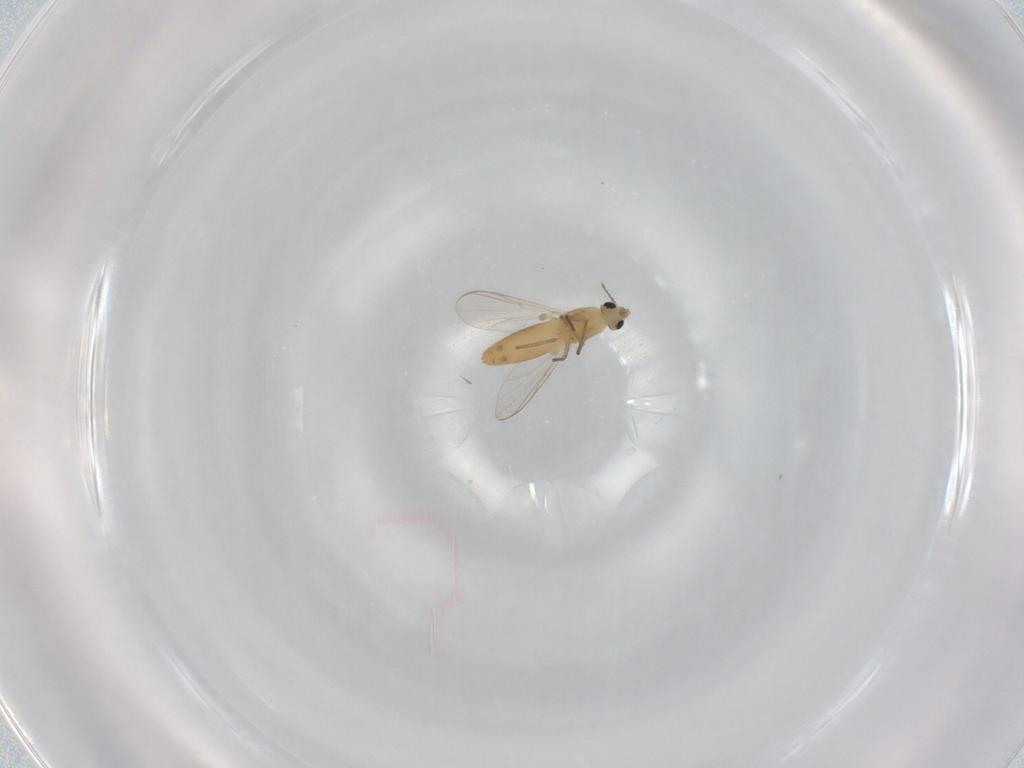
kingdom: Animalia
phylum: Arthropoda
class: Insecta
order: Diptera
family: Chironomidae
